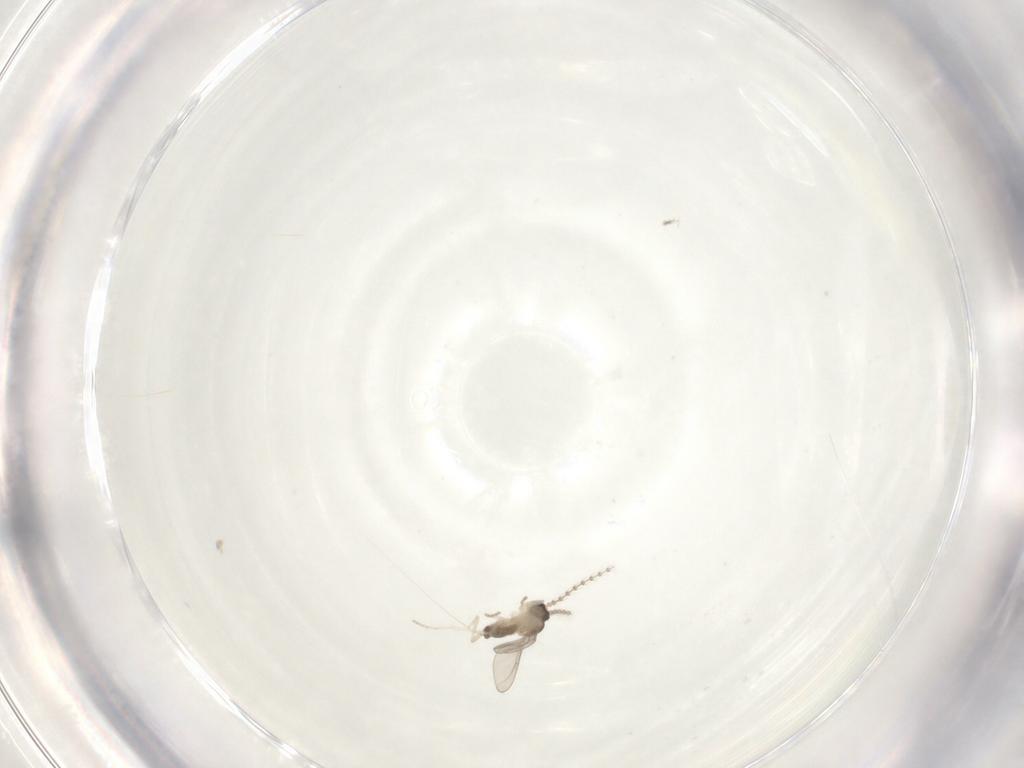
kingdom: Animalia
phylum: Arthropoda
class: Insecta
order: Diptera
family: Cecidomyiidae
